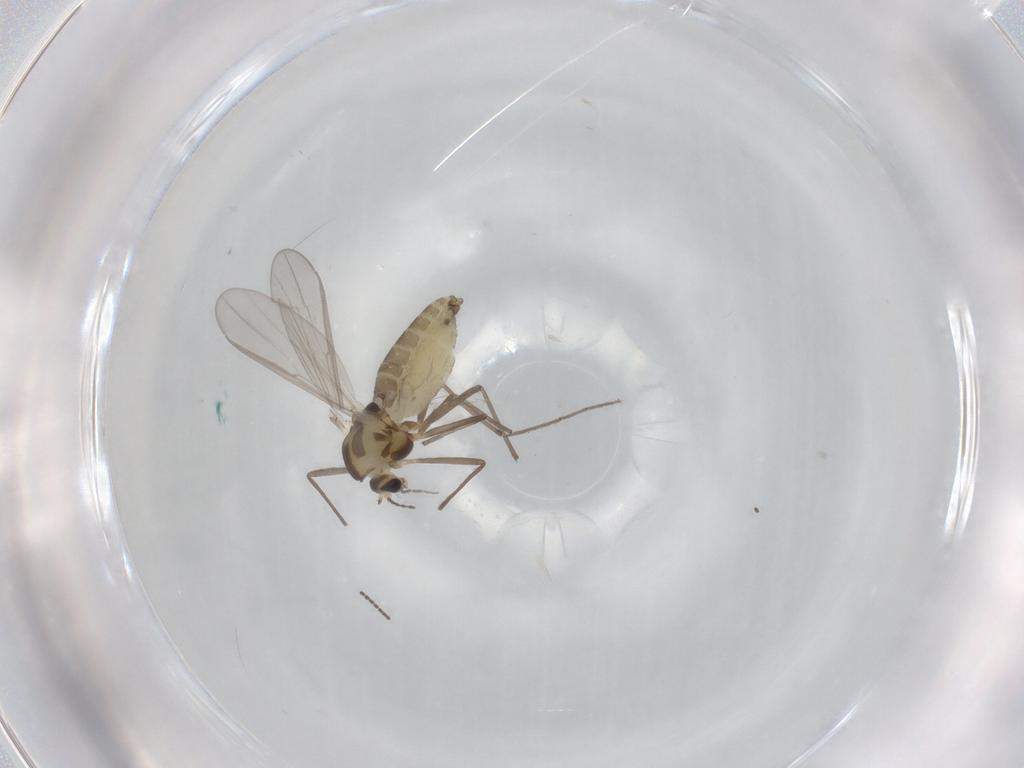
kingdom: Animalia
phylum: Arthropoda
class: Insecta
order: Diptera
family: Chironomidae
